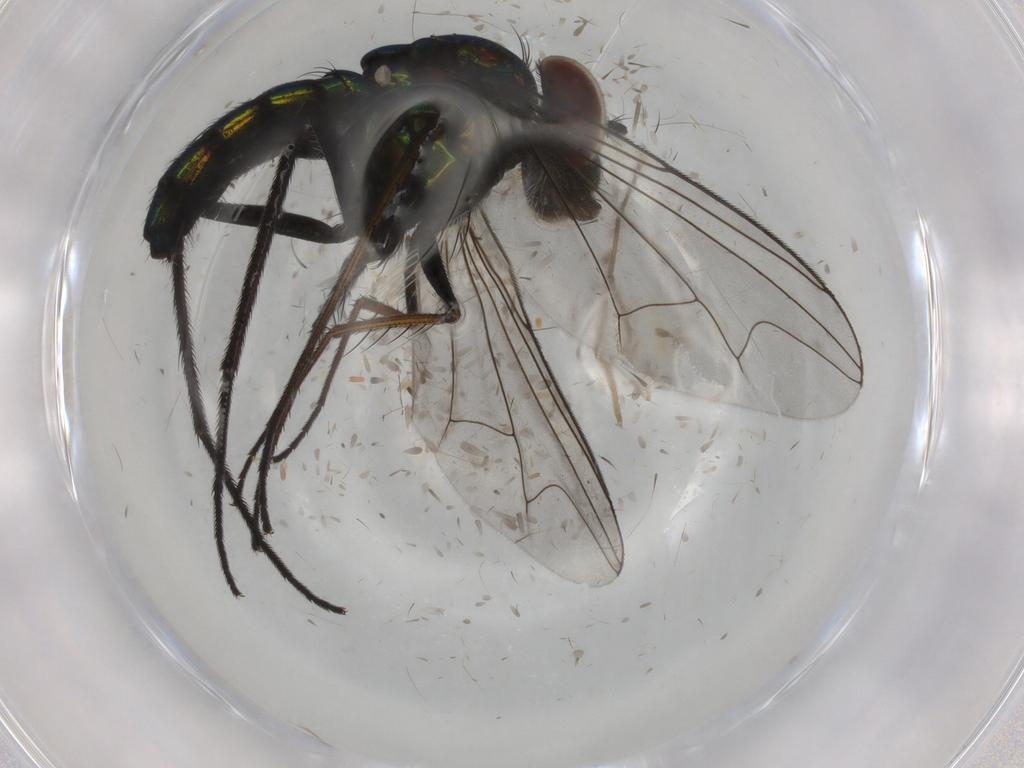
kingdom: Animalia
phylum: Arthropoda
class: Insecta
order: Diptera
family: Dolichopodidae
